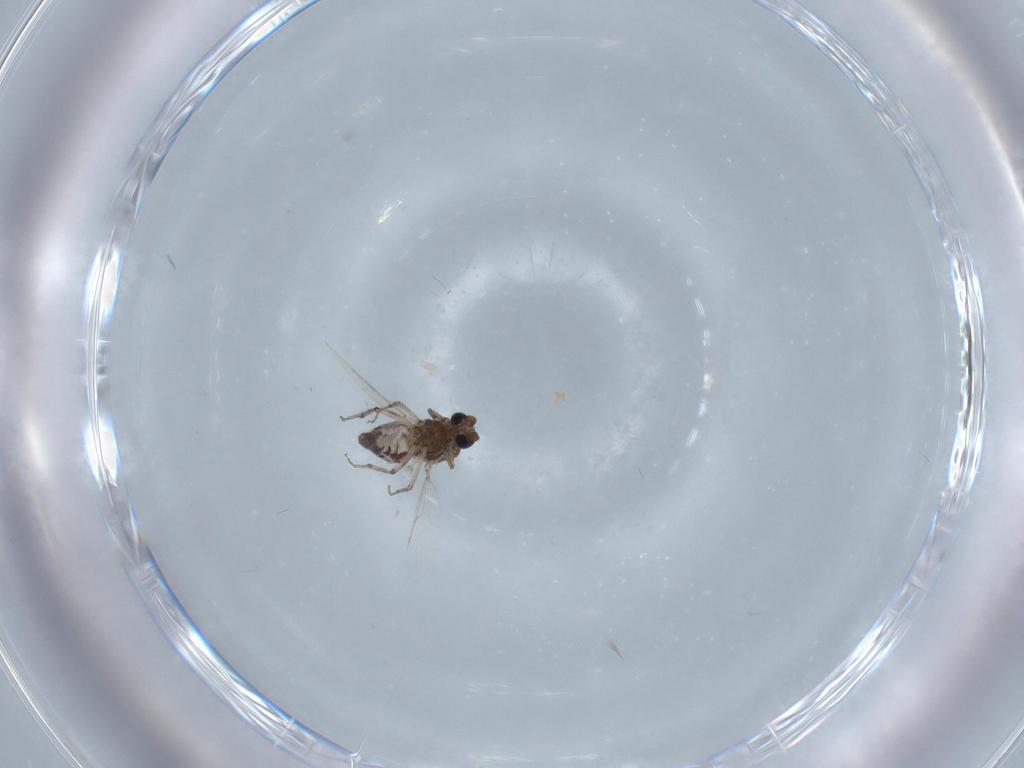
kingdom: Animalia
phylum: Arthropoda
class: Insecta
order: Diptera
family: Chironomidae
